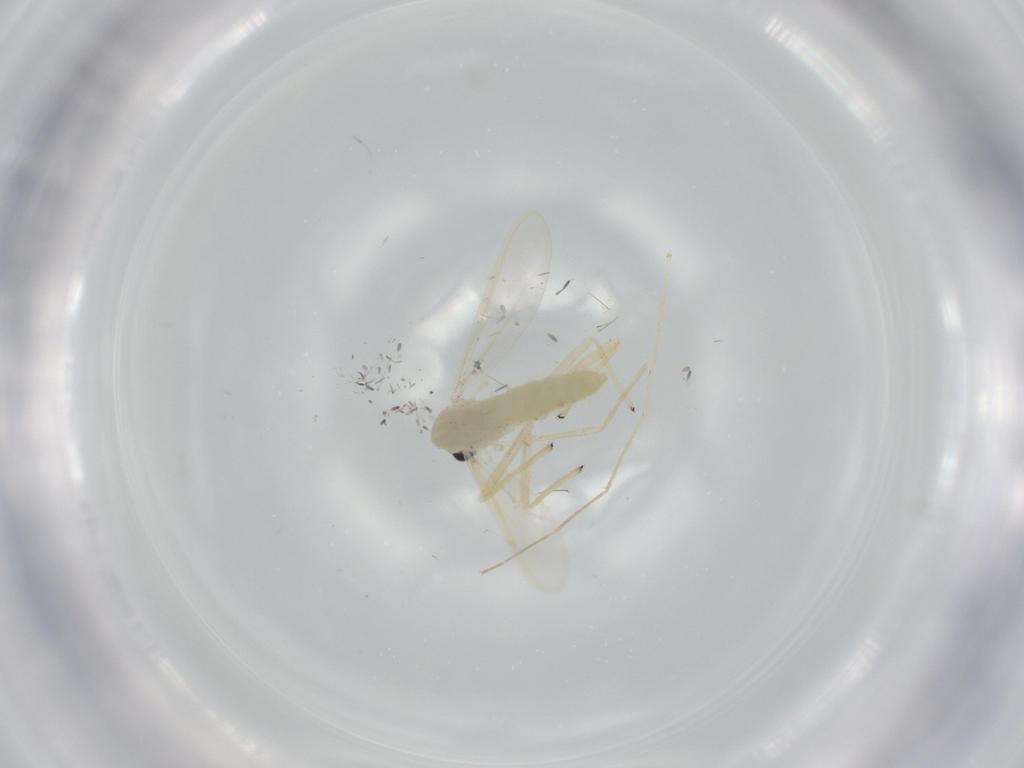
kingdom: Animalia
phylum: Arthropoda
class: Insecta
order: Diptera
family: Chironomidae
